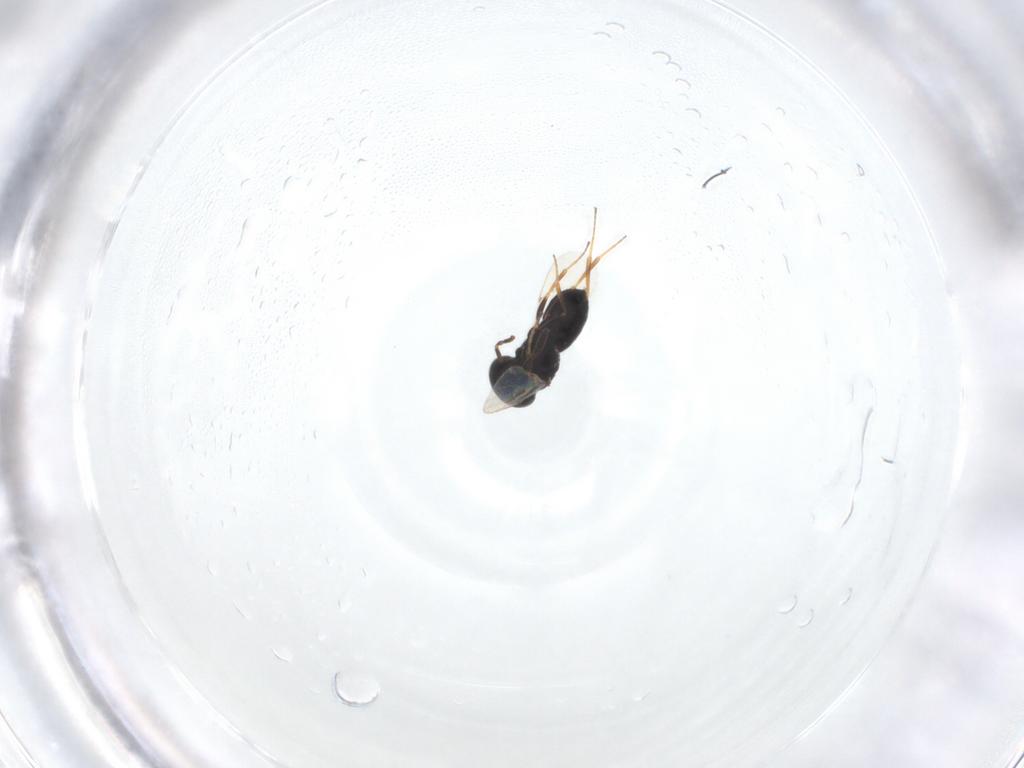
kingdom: Animalia
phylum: Arthropoda
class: Insecta
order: Hymenoptera
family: Scelionidae
